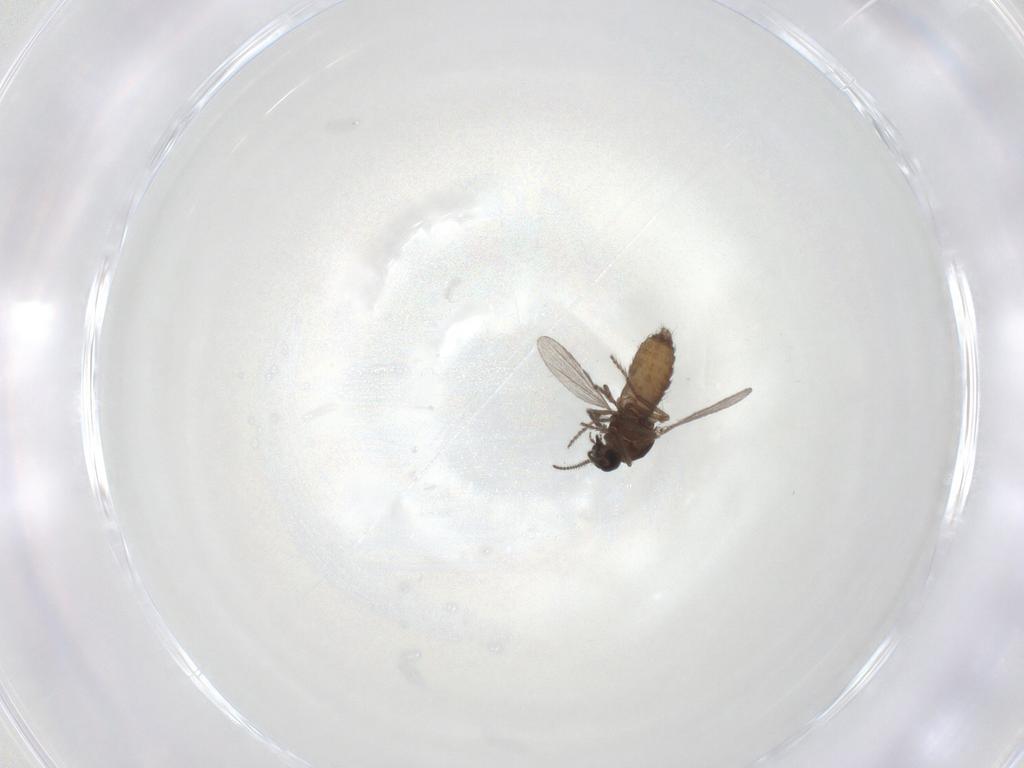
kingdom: Animalia
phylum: Arthropoda
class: Insecta
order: Diptera
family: Ceratopogonidae
